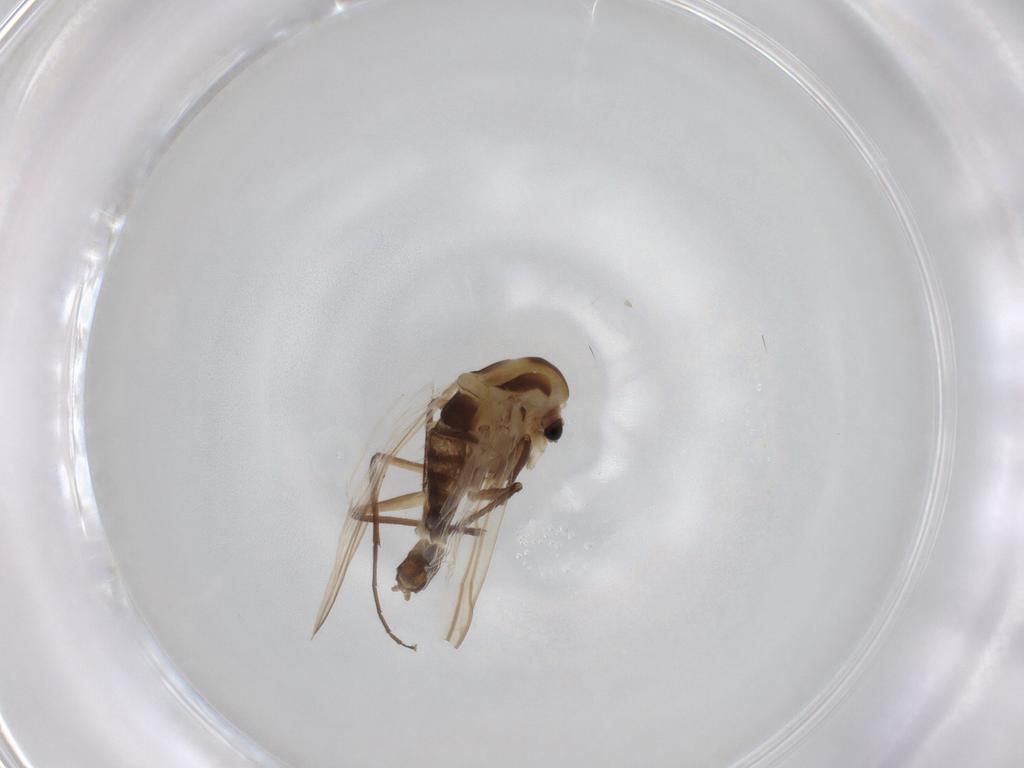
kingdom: Animalia
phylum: Arthropoda
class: Insecta
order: Diptera
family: Chironomidae
